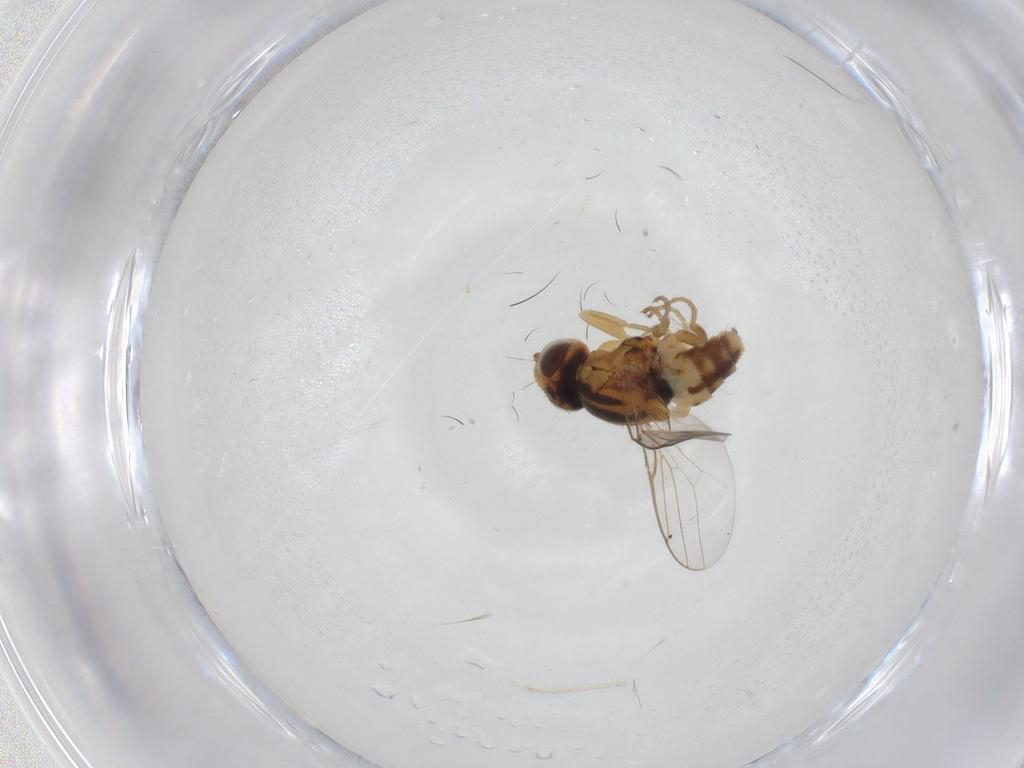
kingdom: Animalia
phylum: Arthropoda
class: Insecta
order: Diptera
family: Chloropidae
